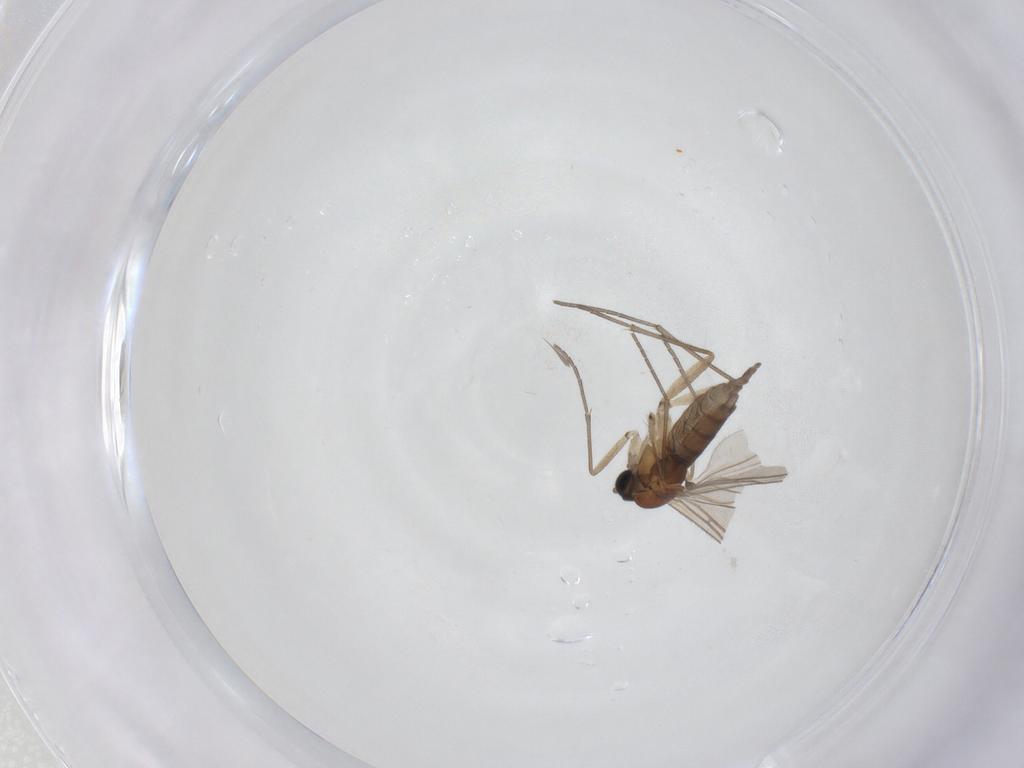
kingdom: Animalia
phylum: Arthropoda
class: Insecta
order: Diptera
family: Sciaridae
